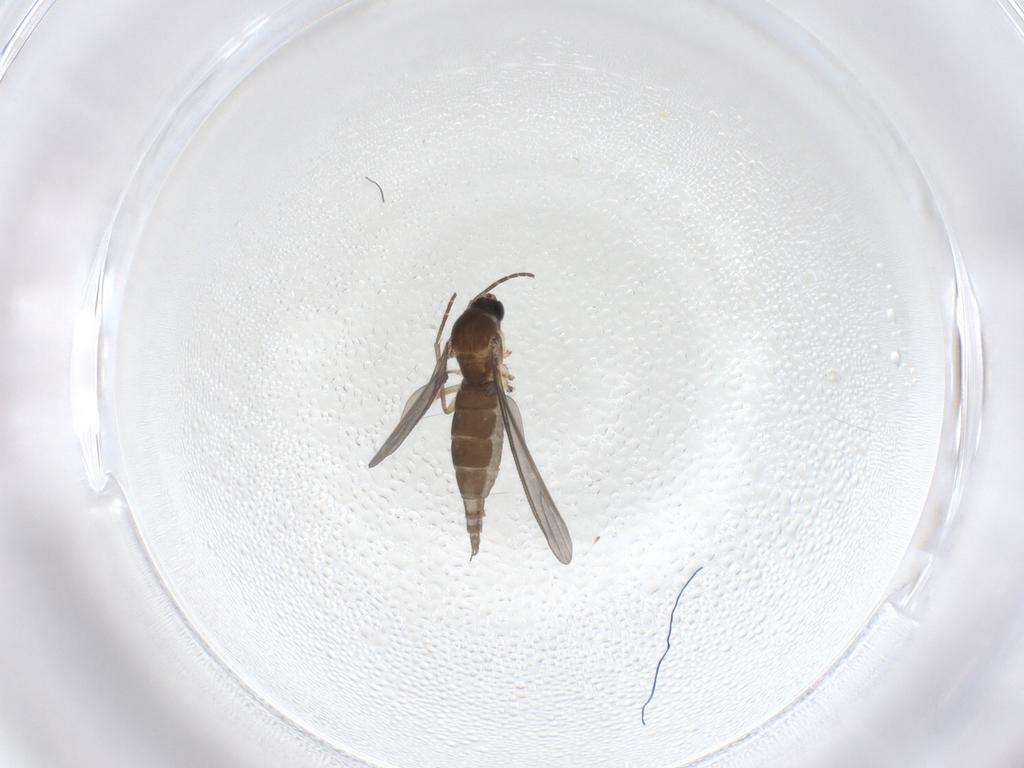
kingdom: Animalia
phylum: Arthropoda
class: Insecta
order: Diptera
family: Sciaridae
